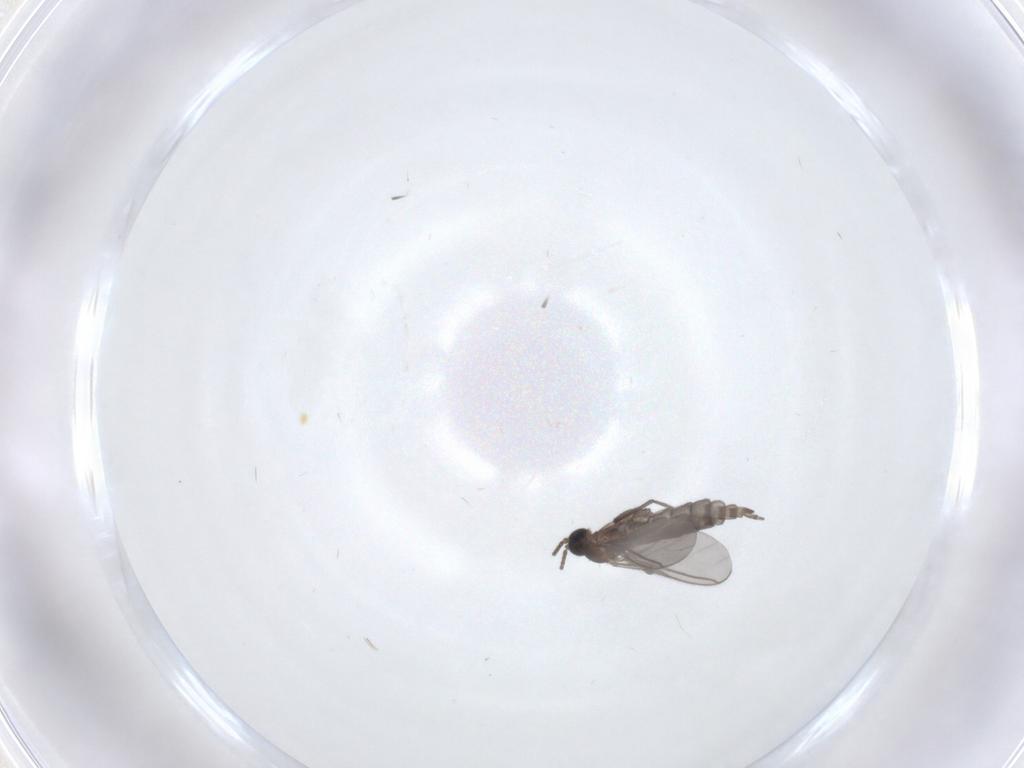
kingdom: Animalia
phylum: Arthropoda
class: Insecta
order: Diptera
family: Sciaridae
